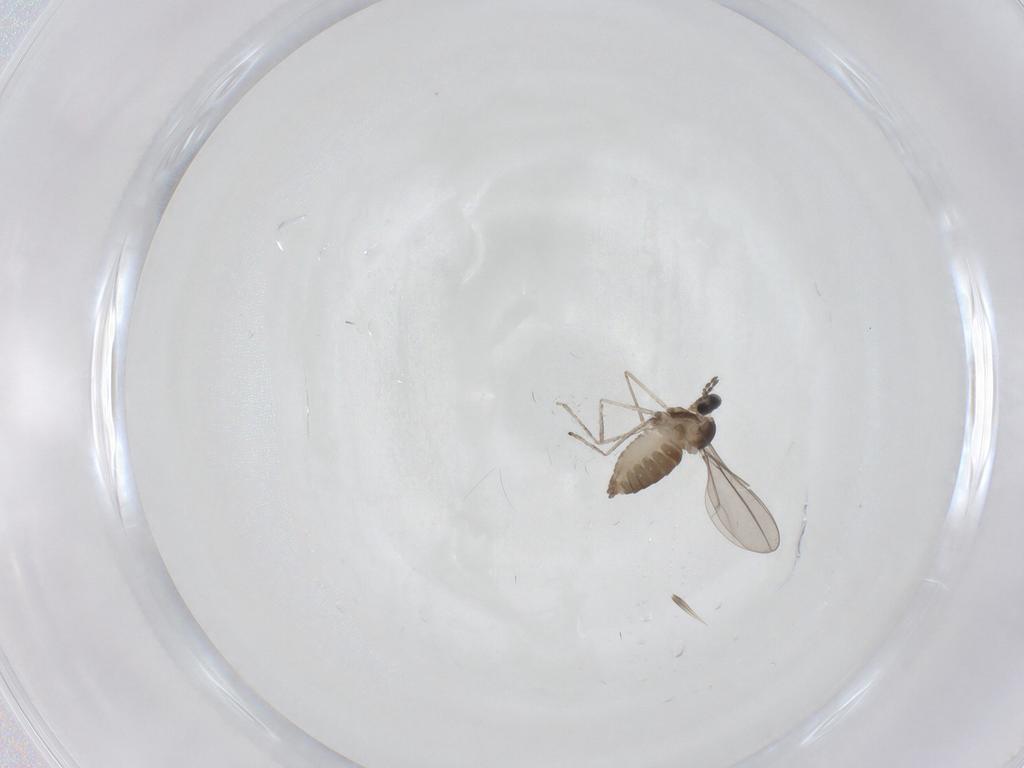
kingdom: Animalia
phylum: Arthropoda
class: Insecta
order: Diptera
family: Cecidomyiidae
